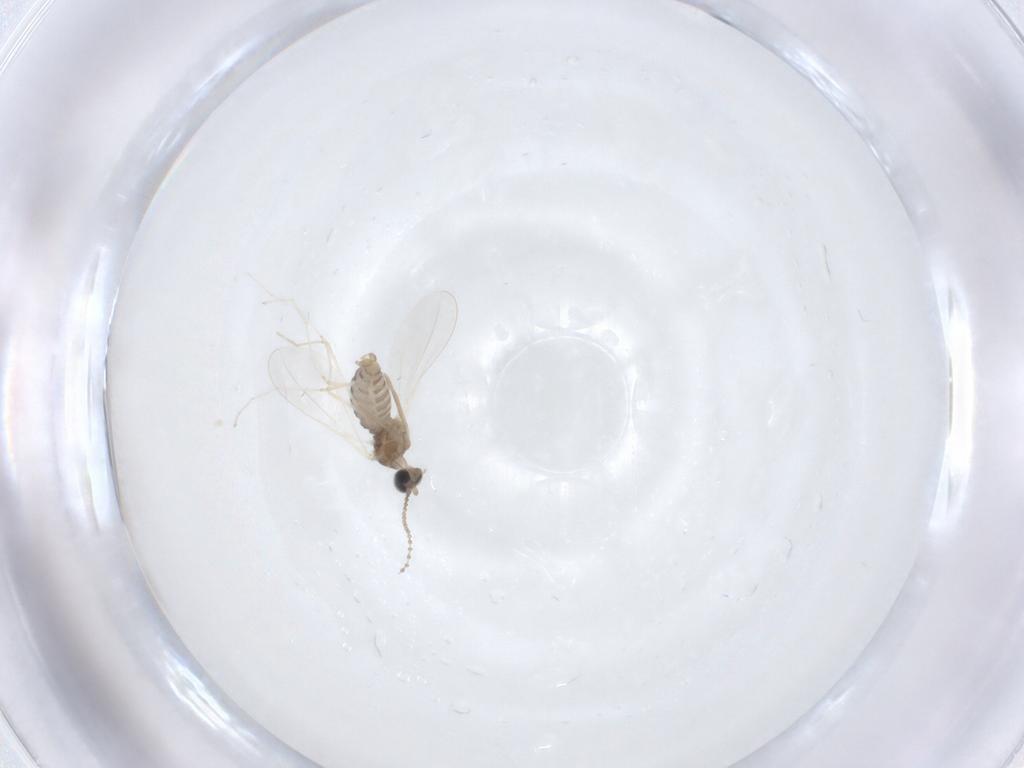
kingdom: Animalia
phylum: Arthropoda
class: Insecta
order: Diptera
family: Cecidomyiidae
